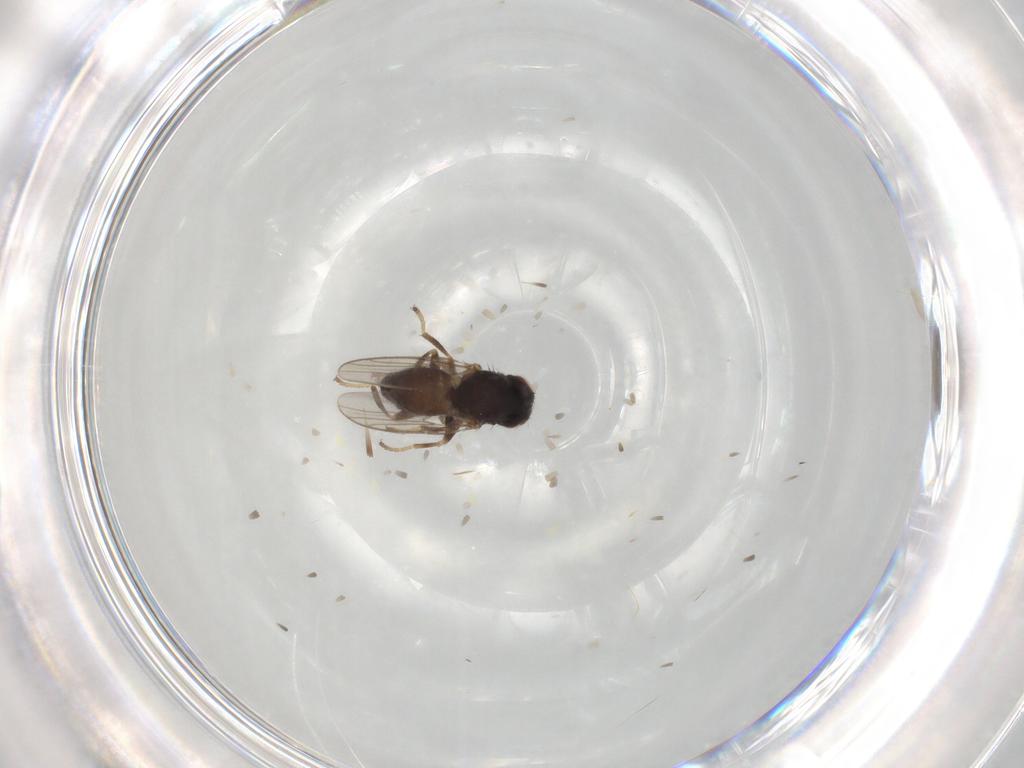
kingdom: Animalia
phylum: Arthropoda
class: Insecta
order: Diptera
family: Chloropidae
